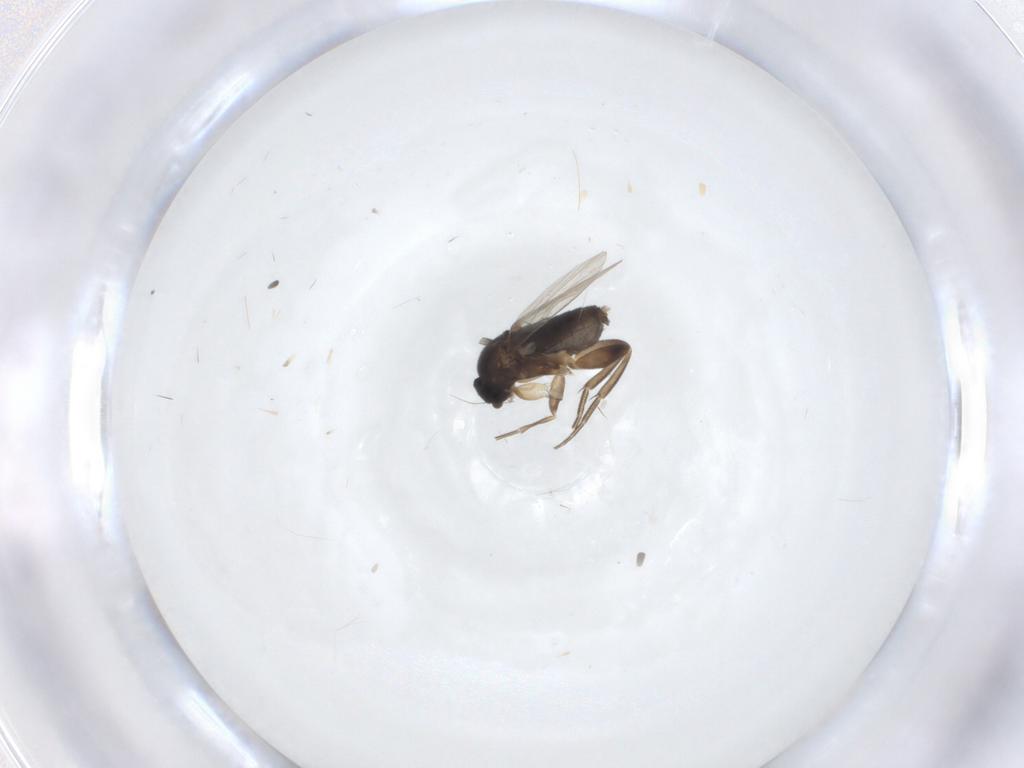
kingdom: Animalia
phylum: Arthropoda
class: Insecta
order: Diptera
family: Phoridae
